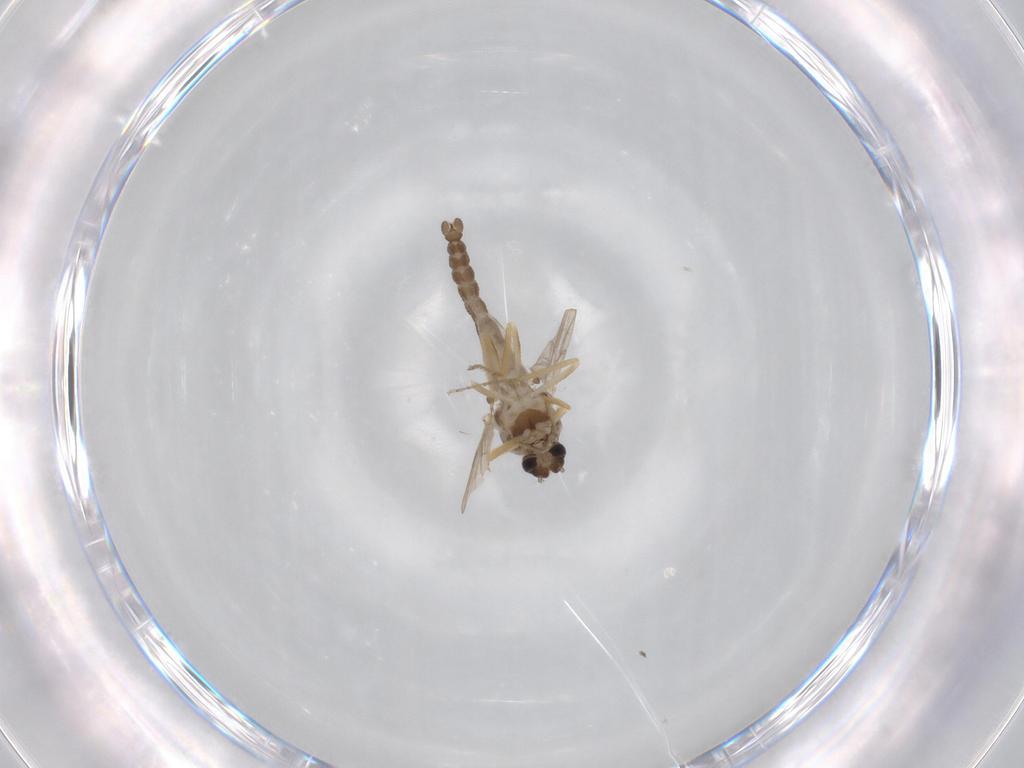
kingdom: Animalia
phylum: Arthropoda
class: Insecta
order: Diptera
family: Ceratopogonidae
